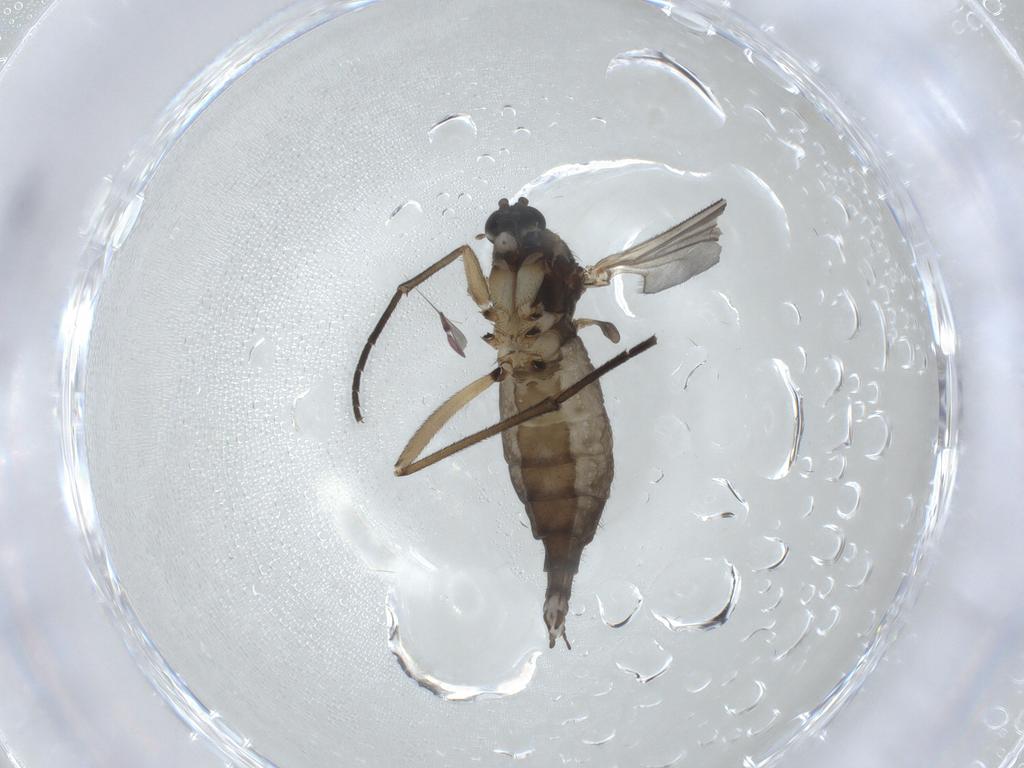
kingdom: Animalia
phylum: Arthropoda
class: Insecta
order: Diptera
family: Sciaridae
